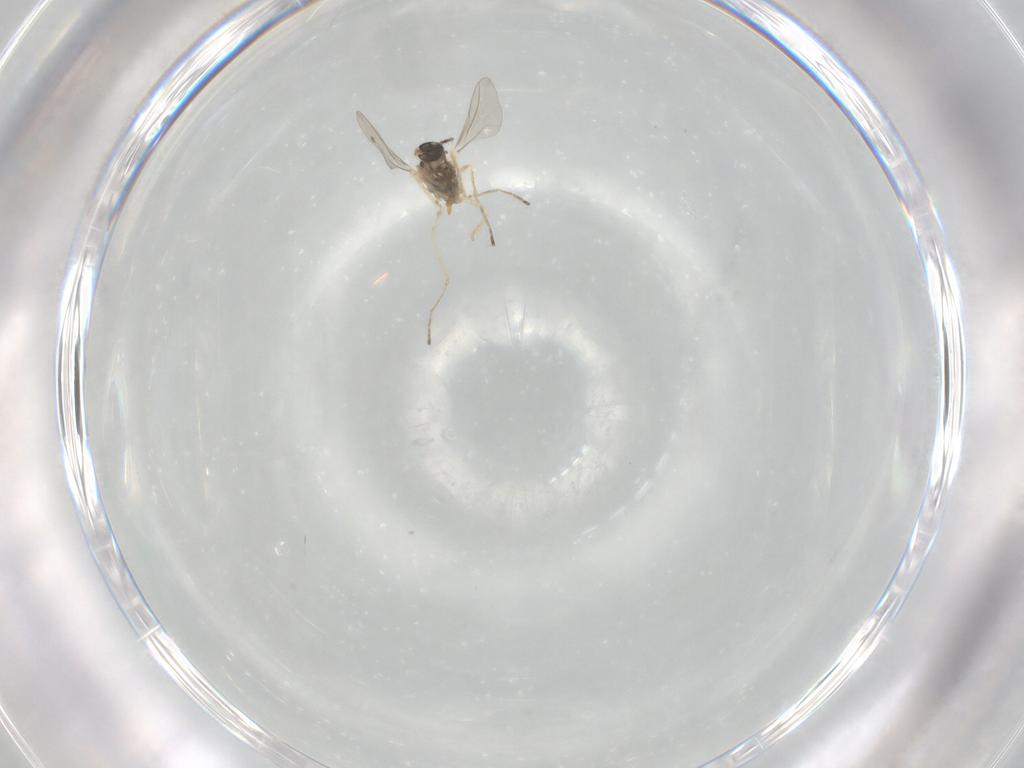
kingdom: Animalia
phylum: Arthropoda
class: Insecta
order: Diptera
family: Cecidomyiidae
